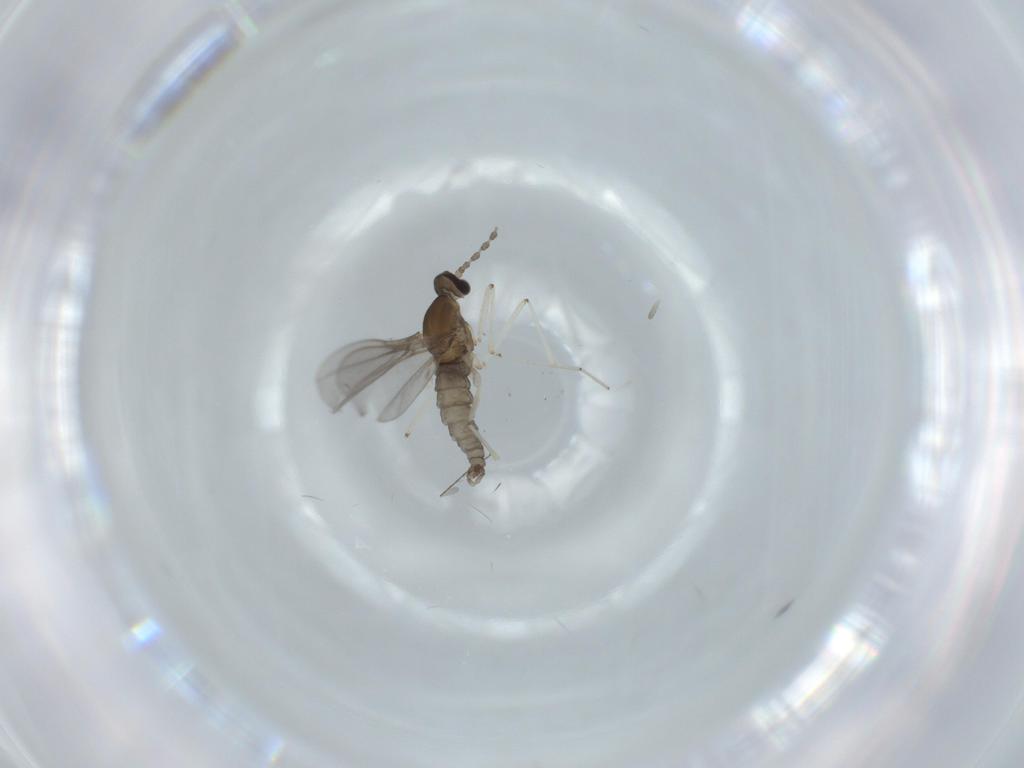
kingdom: Animalia
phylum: Arthropoda
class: Insecta
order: Diptera
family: Cecidomyiidae
